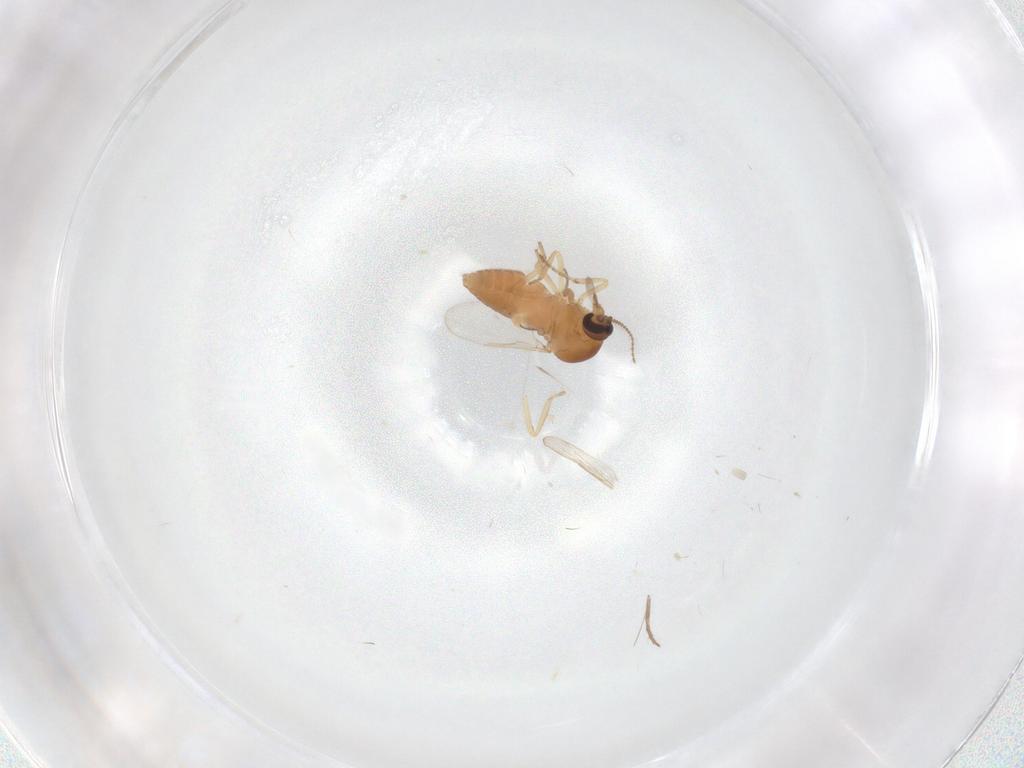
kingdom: Animalia
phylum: Arthropoda
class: Insecta
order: Diptera
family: Ceratopogonidae
